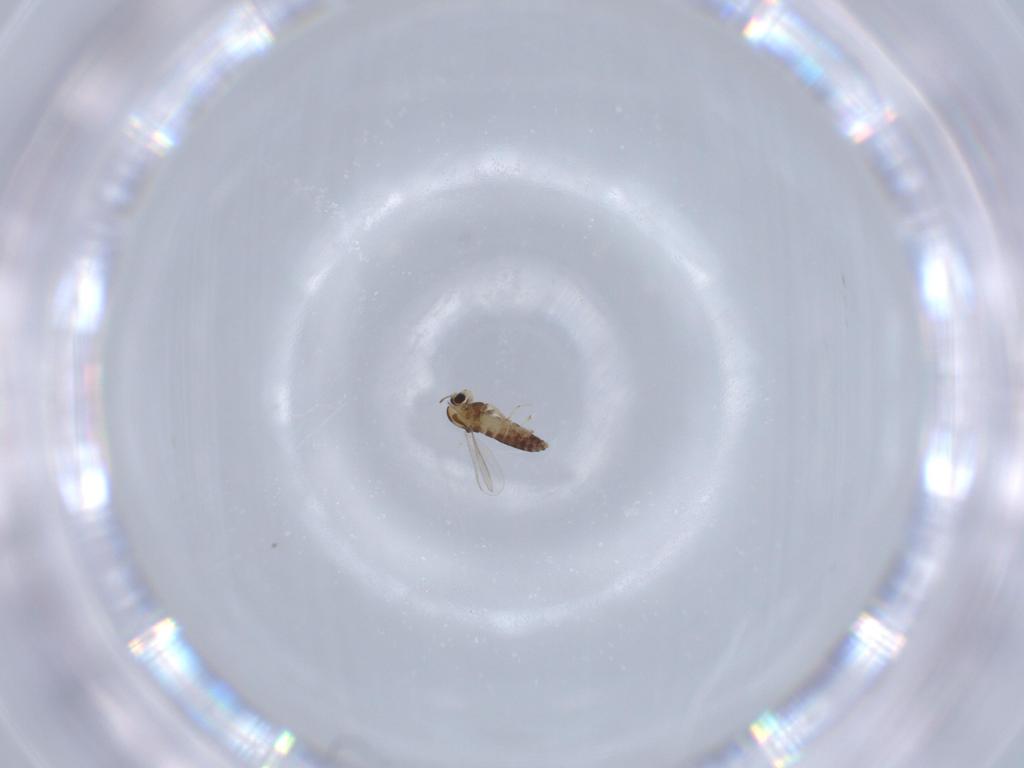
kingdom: Animalia
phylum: Arthropoda
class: Insecta
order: Diptera
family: Chironomidae
